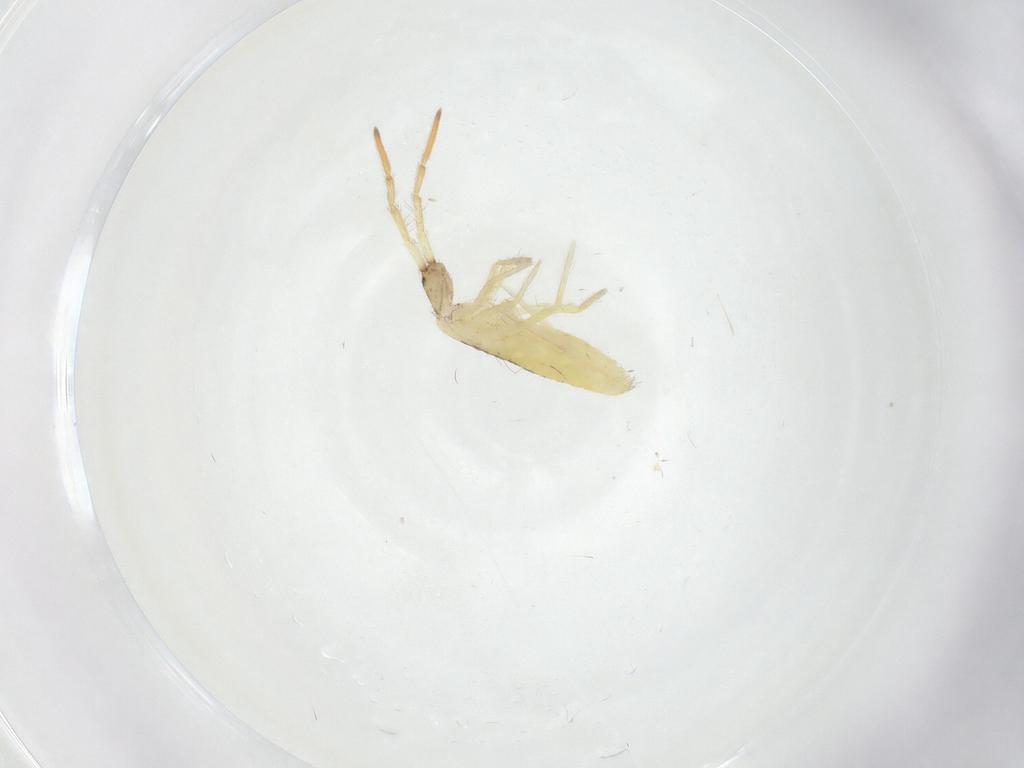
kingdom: Animalia
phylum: Arthropoda
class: Collembola
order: Entomobryomorpha
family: Entomobryidae
